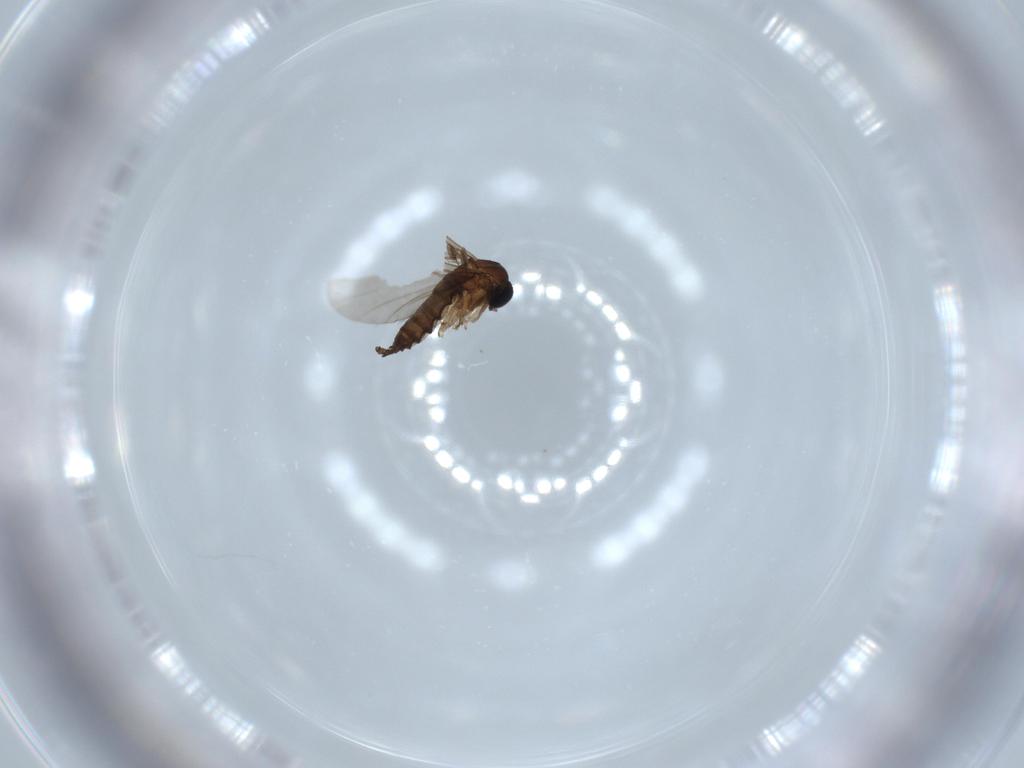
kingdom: Animalia
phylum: Arthropoda
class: Insecta
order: Diptera
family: Sciaridae
